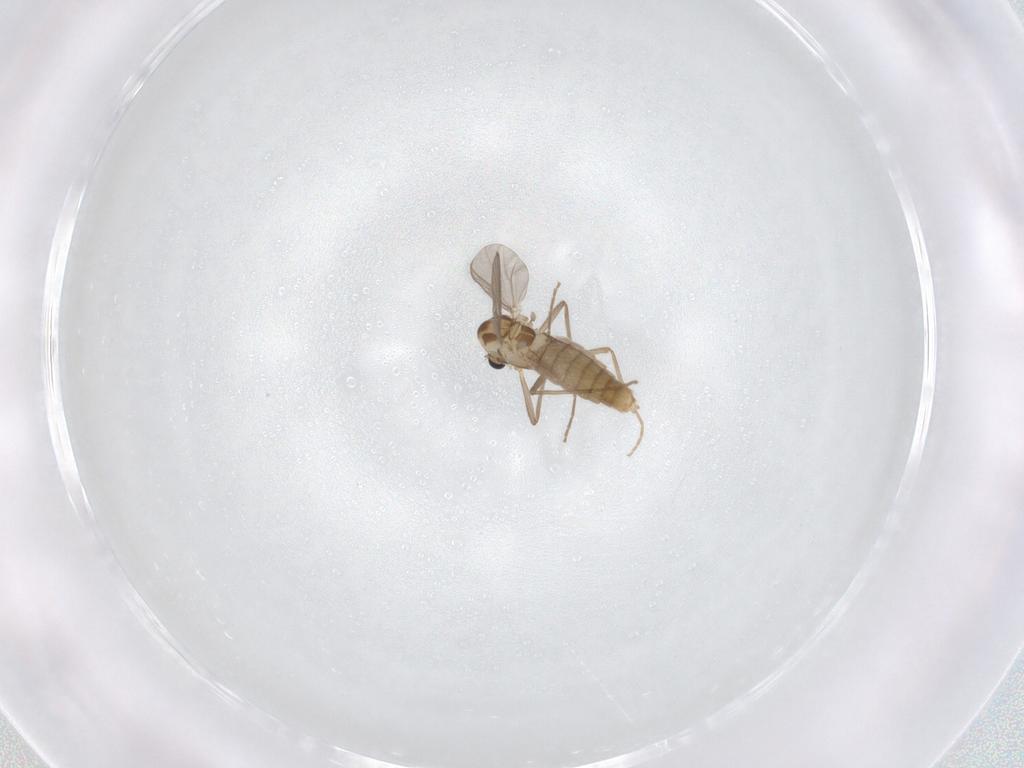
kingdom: Animalia
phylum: Arthropoda
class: Insecta
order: Diptera
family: Chironomidae
